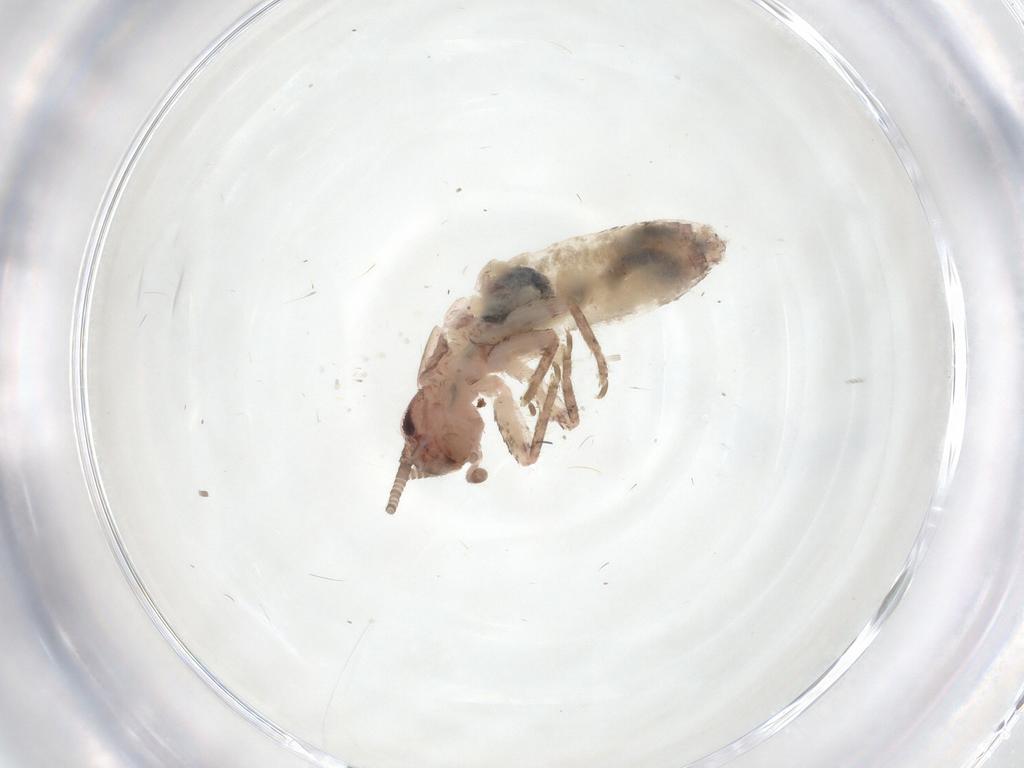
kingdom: Animalia
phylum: Arthropoda
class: Insecta
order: Orthoptera
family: Gryllidae
